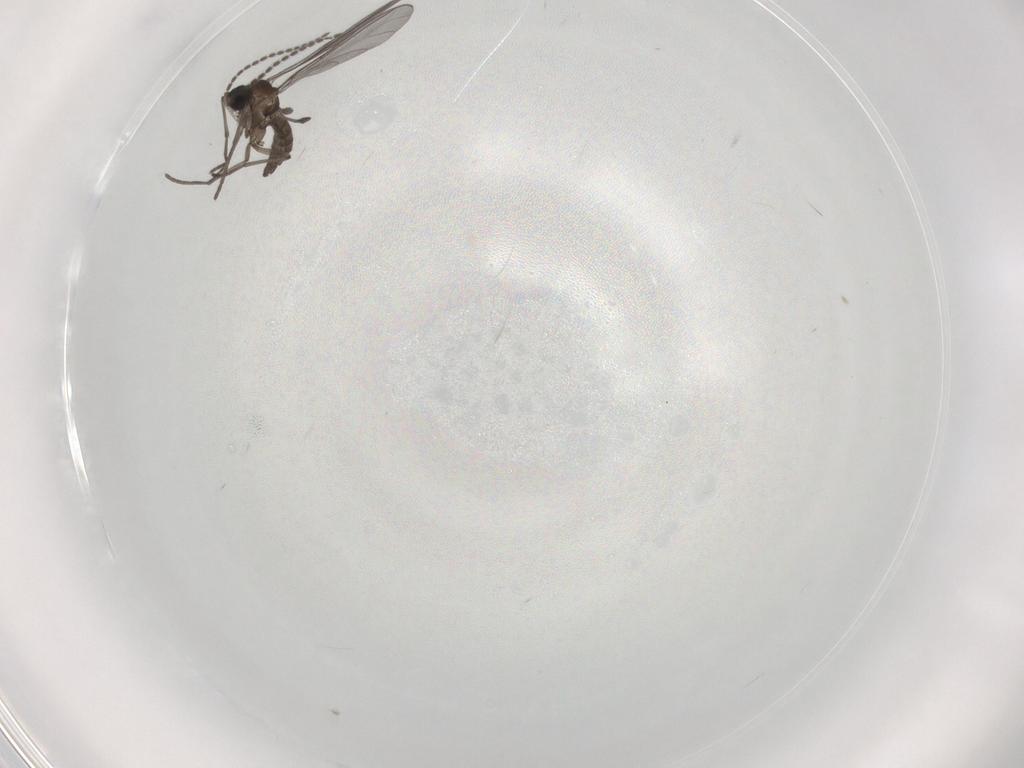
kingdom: Animalia
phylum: Arthropoda
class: Insecta
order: Diptera
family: Sciaridae
